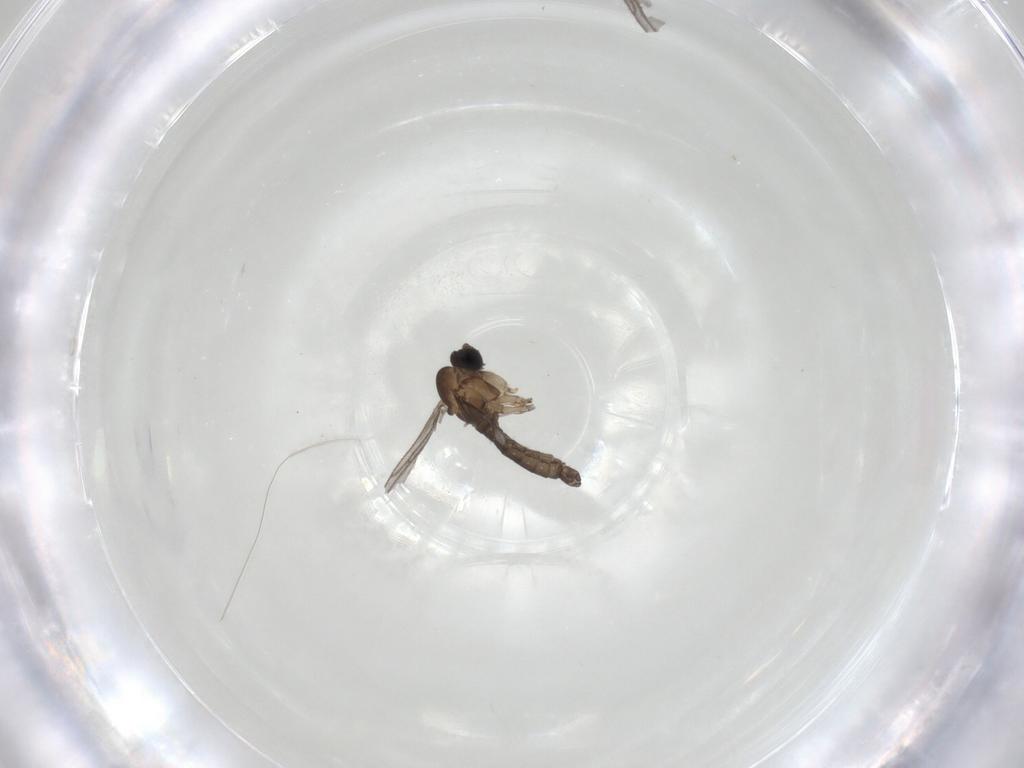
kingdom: Animalia
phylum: Arthropoda
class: Insecta
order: Diptera
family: Sciaridae
